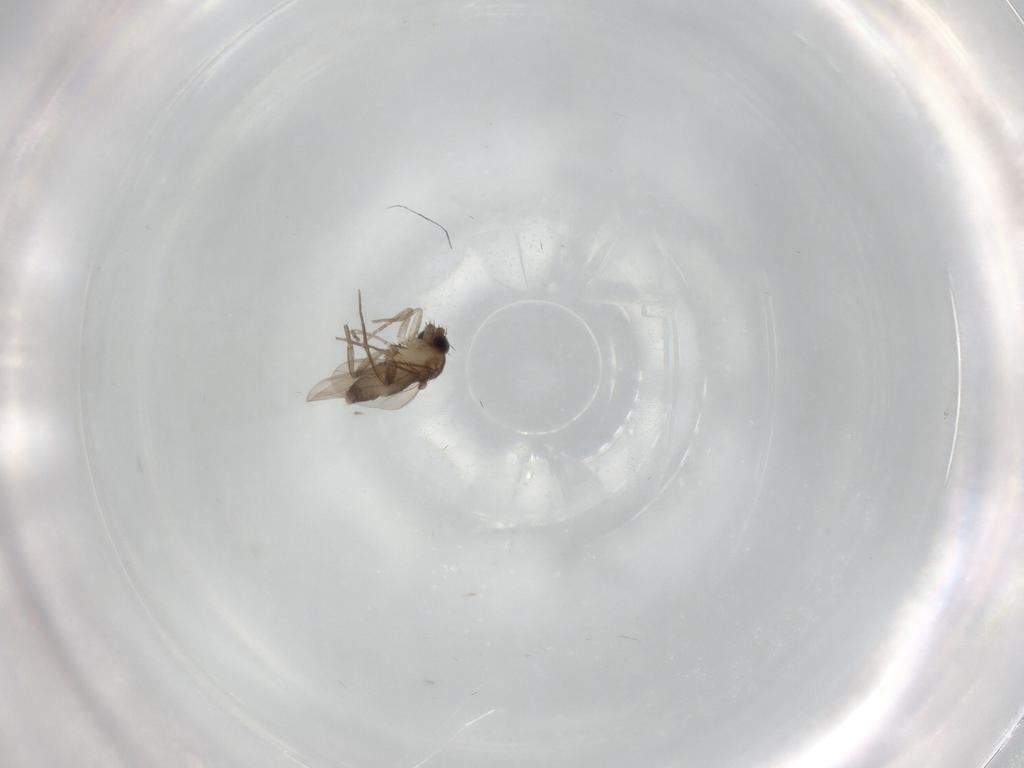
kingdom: Animalia
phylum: Arthropoda
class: Insecta
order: Diptera
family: Phoridae
